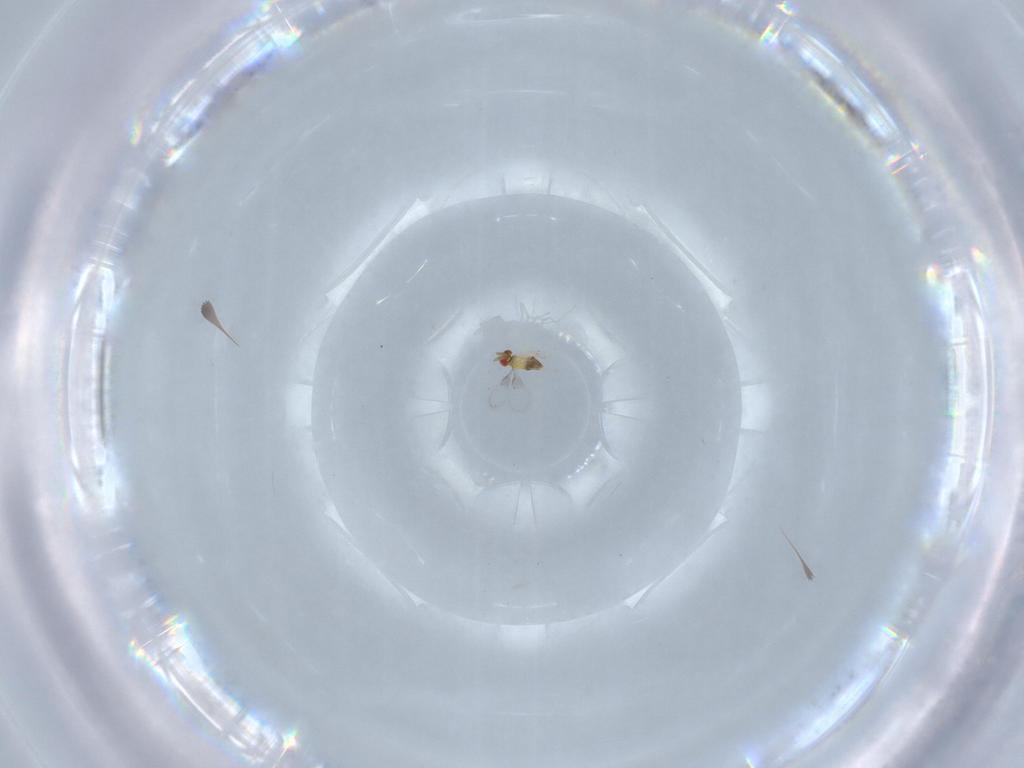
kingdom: Animalia
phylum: Arthropoda
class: Insecta
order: Hymenoptera
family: Trichogrammatidae
